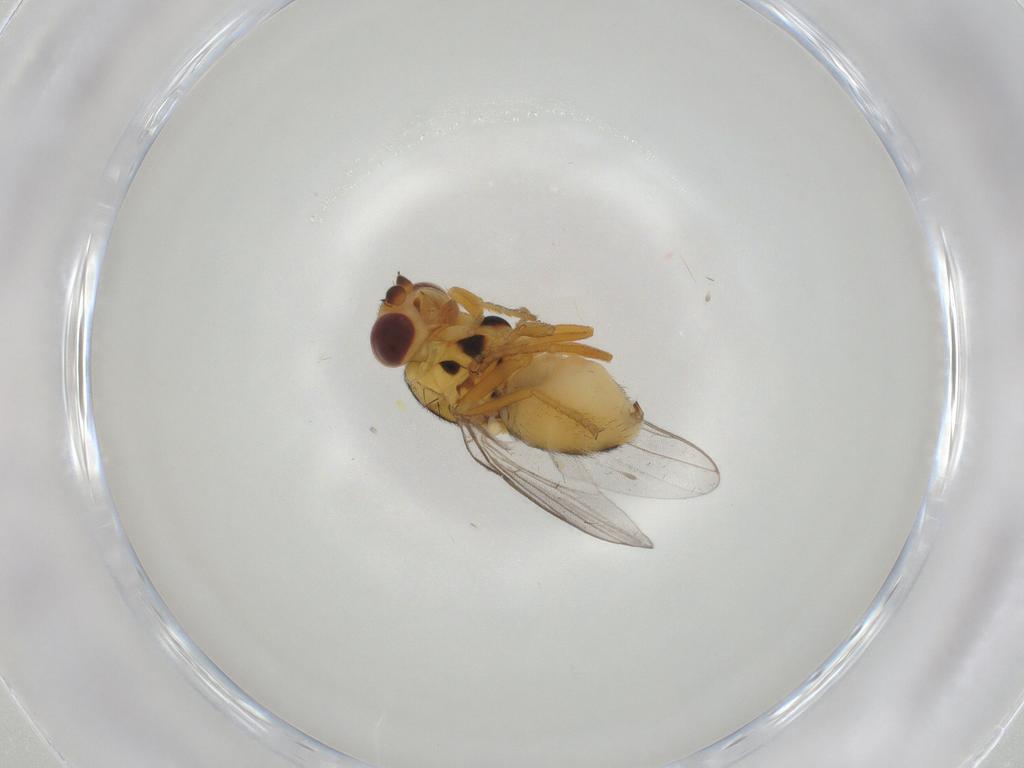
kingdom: Animalia
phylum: Arthropoda
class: Insecta
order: Diptera
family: Chloropidae
